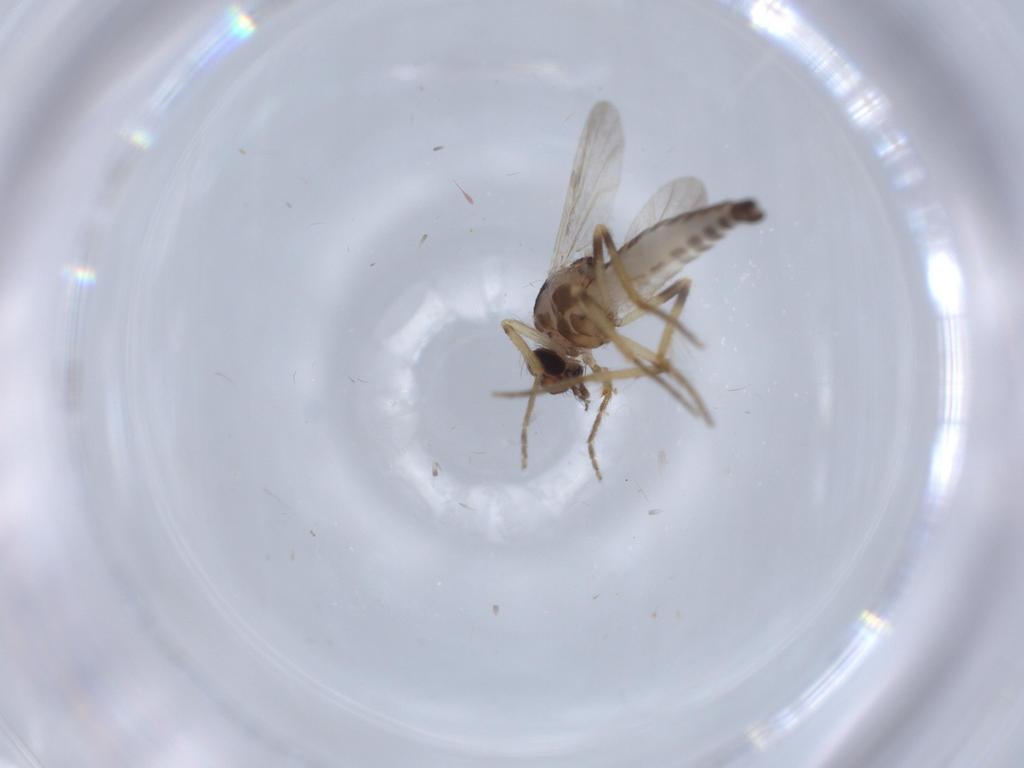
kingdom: Animalia
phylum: Arthropoda
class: Insecta
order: Diptera
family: Ceratopogonidae
